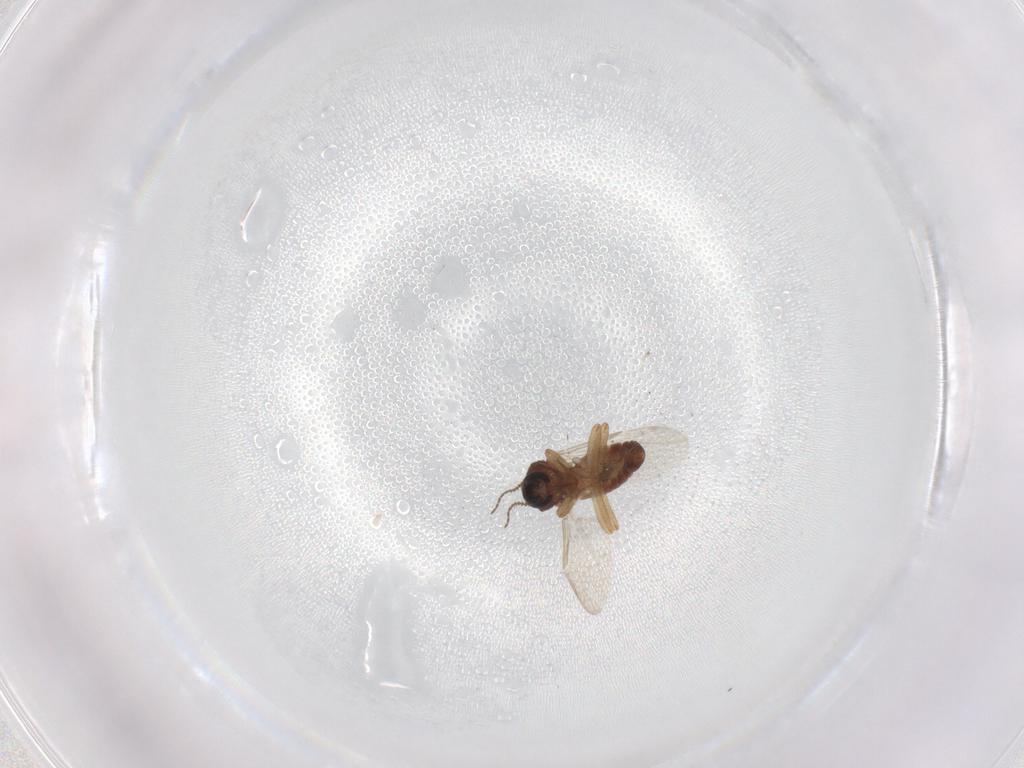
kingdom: Animalia
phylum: Arthropoda
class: Insecta
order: Diptera
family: Ceratopogonidae
